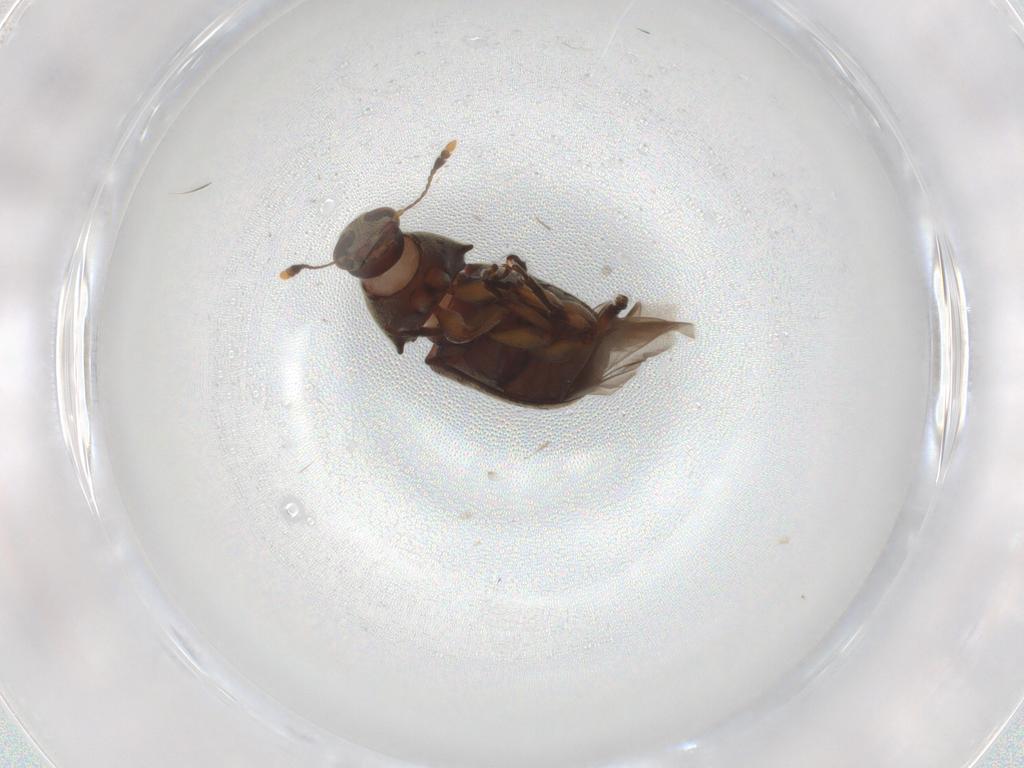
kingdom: Animalia
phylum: Arthropoda
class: Insecta
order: Coleoptera
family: Anthribidae
